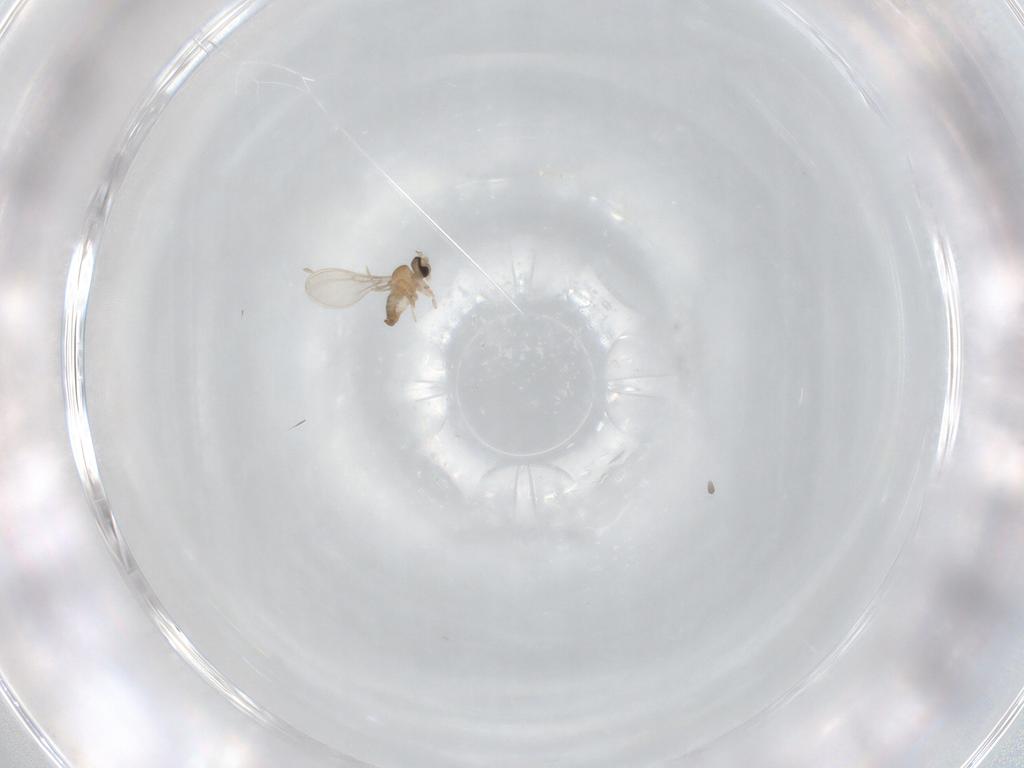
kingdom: Animalia
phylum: Arthropoda
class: Insecta
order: Diptera
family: Cecidomyiidae
